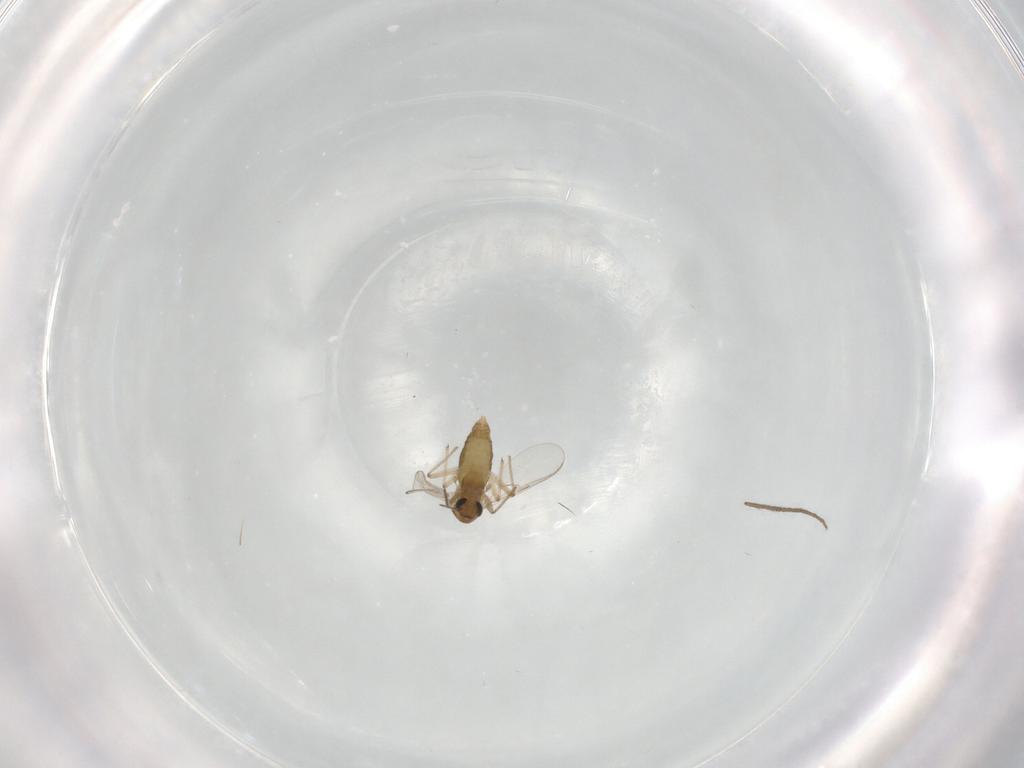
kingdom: Animalia
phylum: Arthropoda
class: Insecta
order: Diptera
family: Chironomidae
